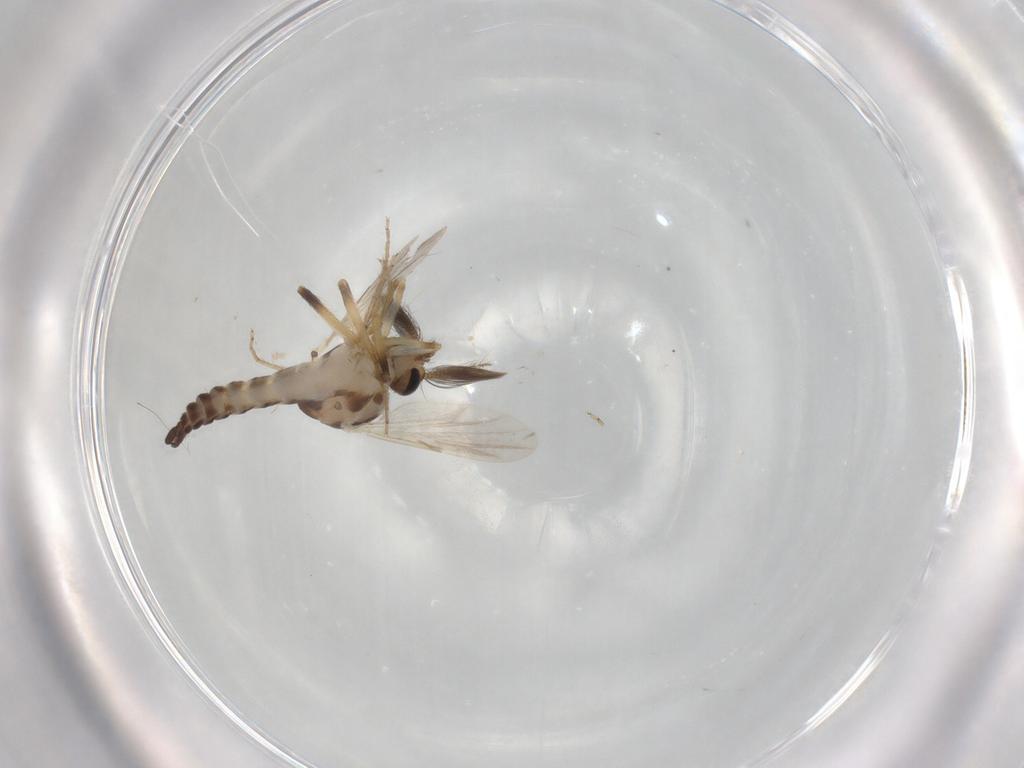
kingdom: Animalia
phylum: Arthropoda
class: Insecta
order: Diptera
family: Ceratopogonidae
